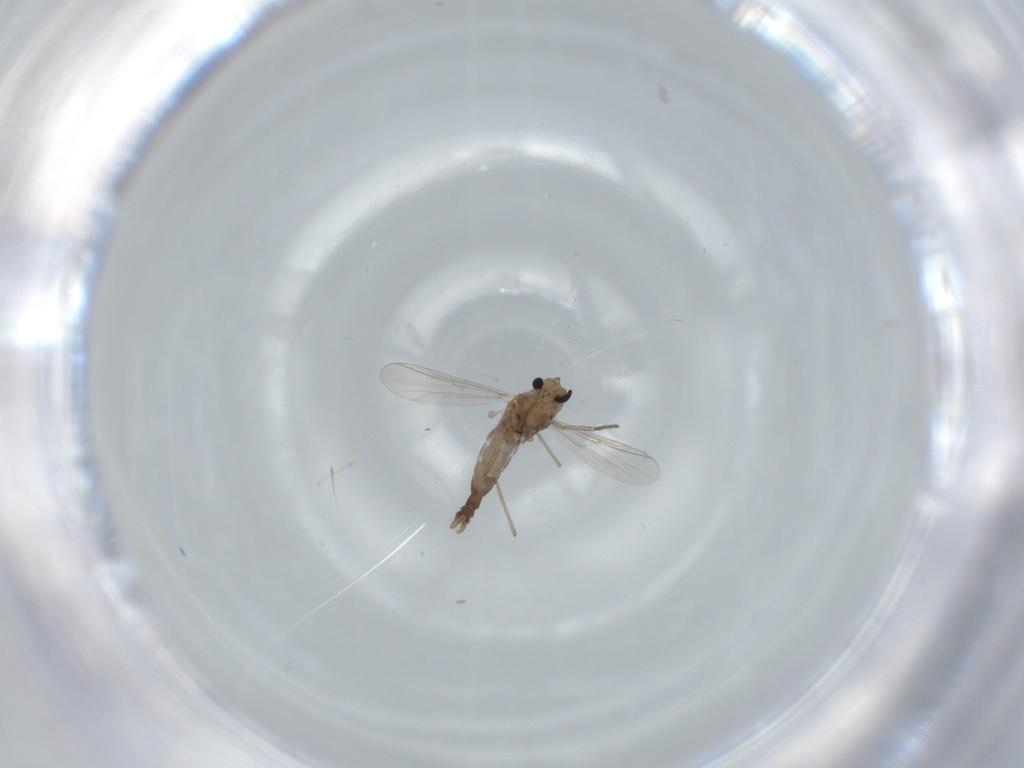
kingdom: Animalia
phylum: Arthropoda
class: Insecta
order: Diptera
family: Chironomidae
